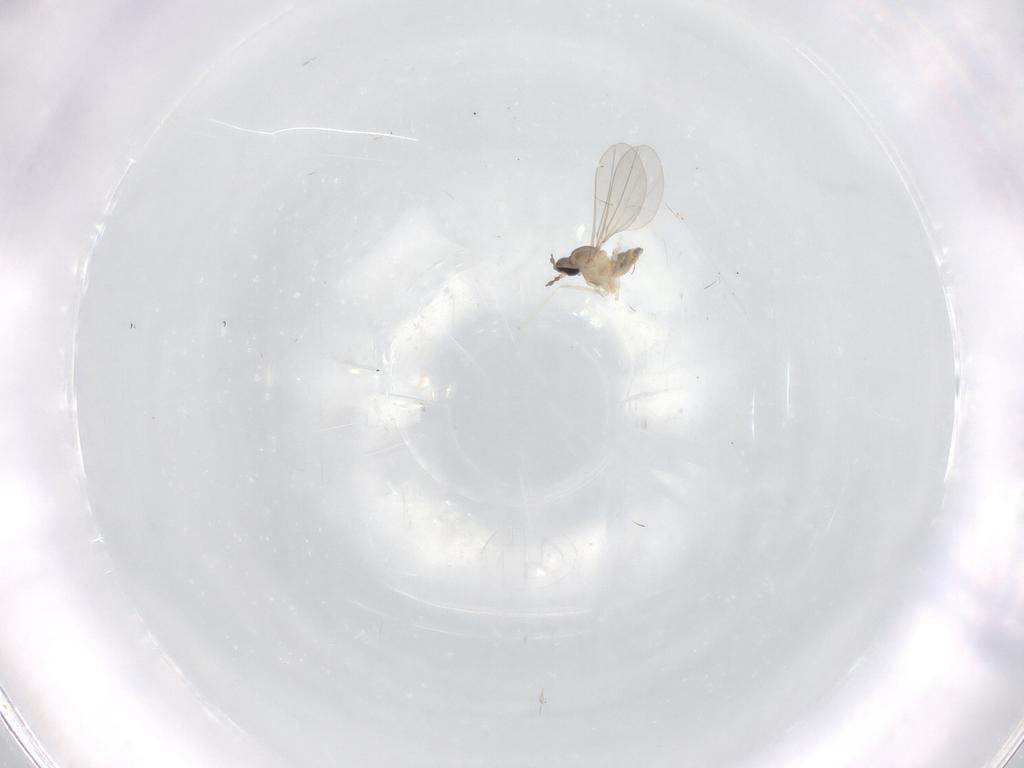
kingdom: Animalia
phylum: Arthropoda
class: Insecta
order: Diptera
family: Cecidomyiidae
